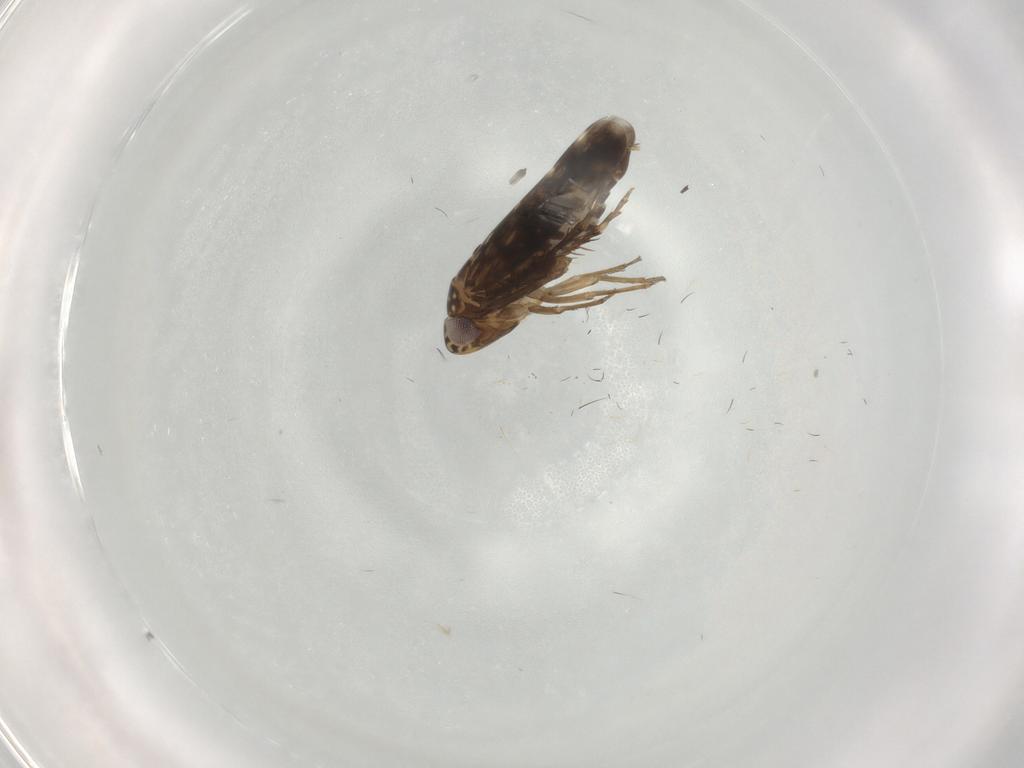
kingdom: Animalia
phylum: Arthropoda
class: Insecta
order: Hemiptera
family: Cicadellidae
